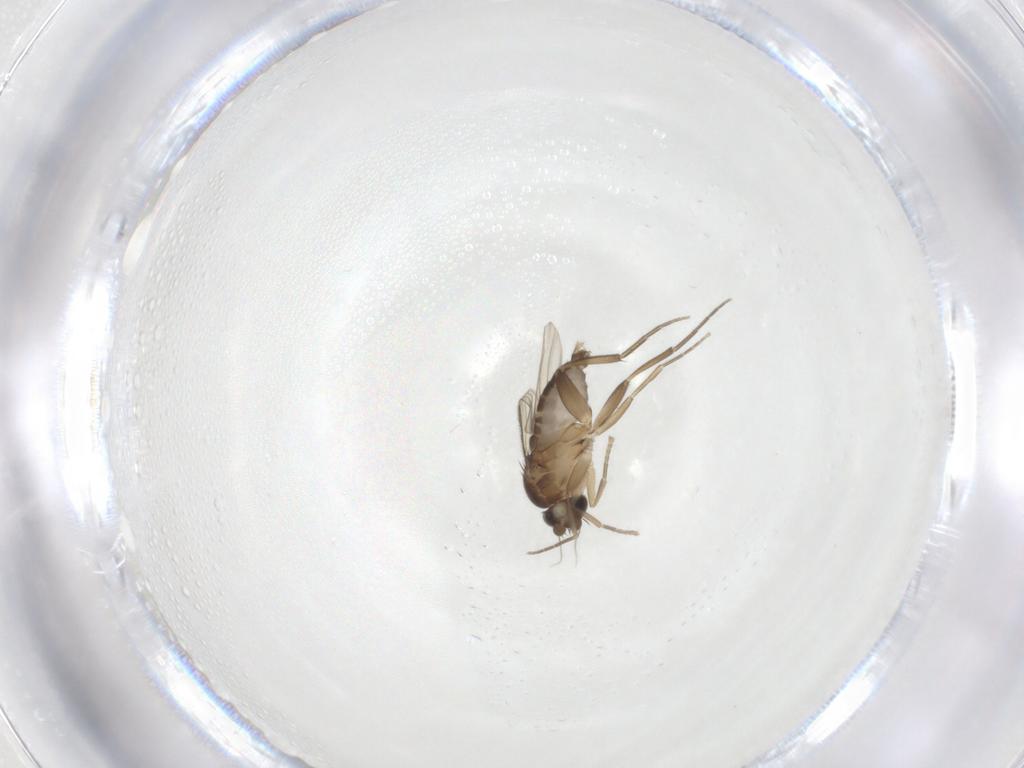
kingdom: Animalia
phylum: Arthropoda
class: Insecta
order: Diptera
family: Phoridae
